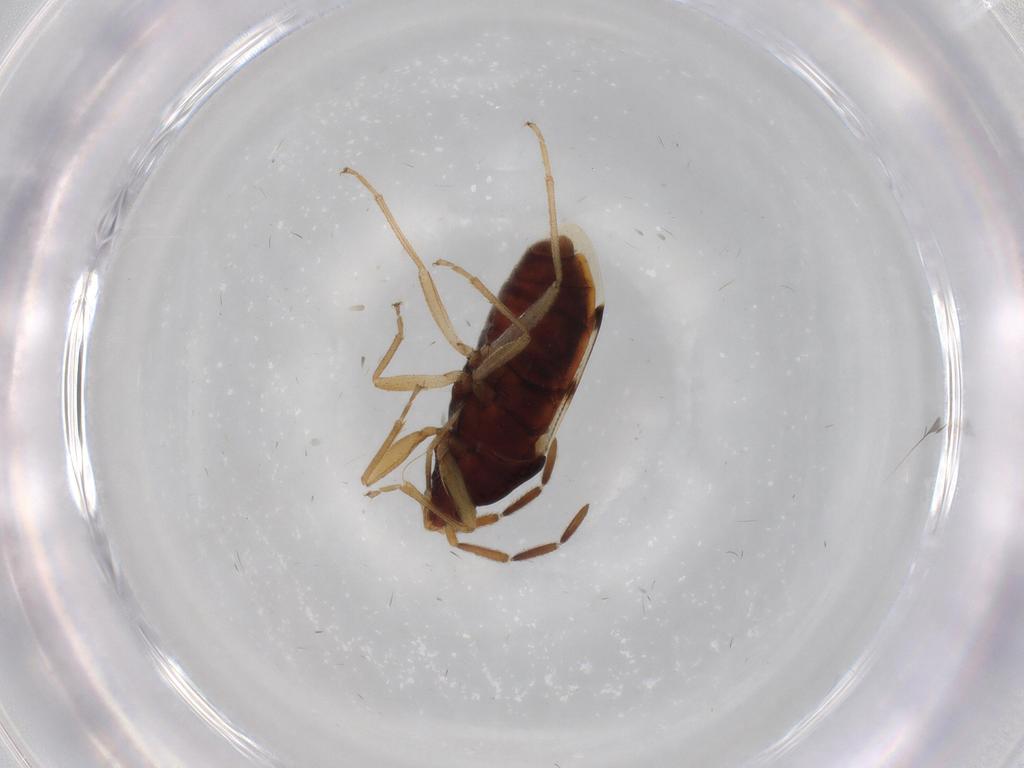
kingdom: Animalia
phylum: Arthropoda
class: Insecta
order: Hemiptera
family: Rhyparochromidae
